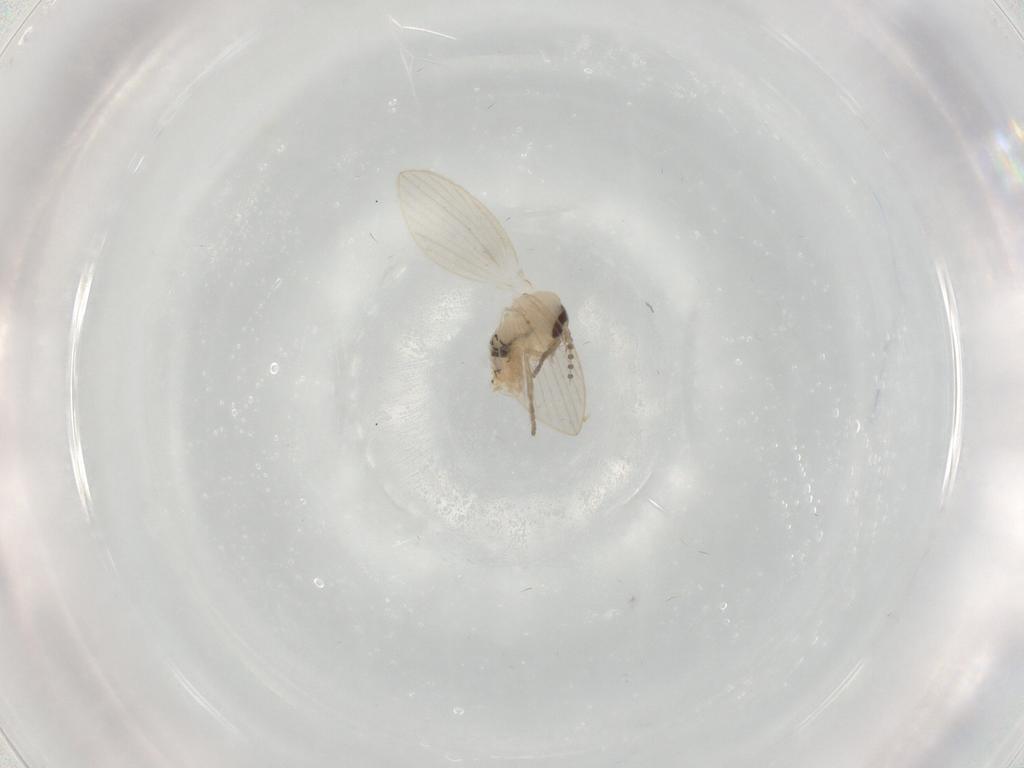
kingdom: Animalia
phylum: Arthropoda
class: Insecta
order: Diptera
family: Psychodidae
